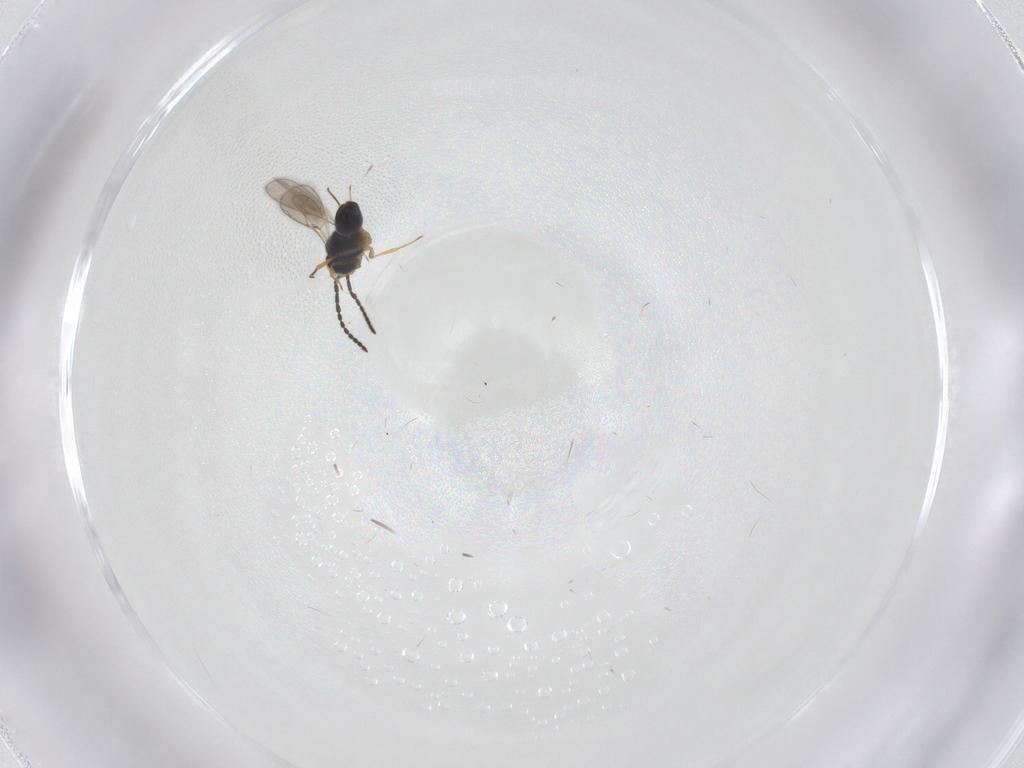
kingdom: Animalia
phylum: Arthropoda
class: Insecta
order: Hymenoptera
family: Scelionidae
